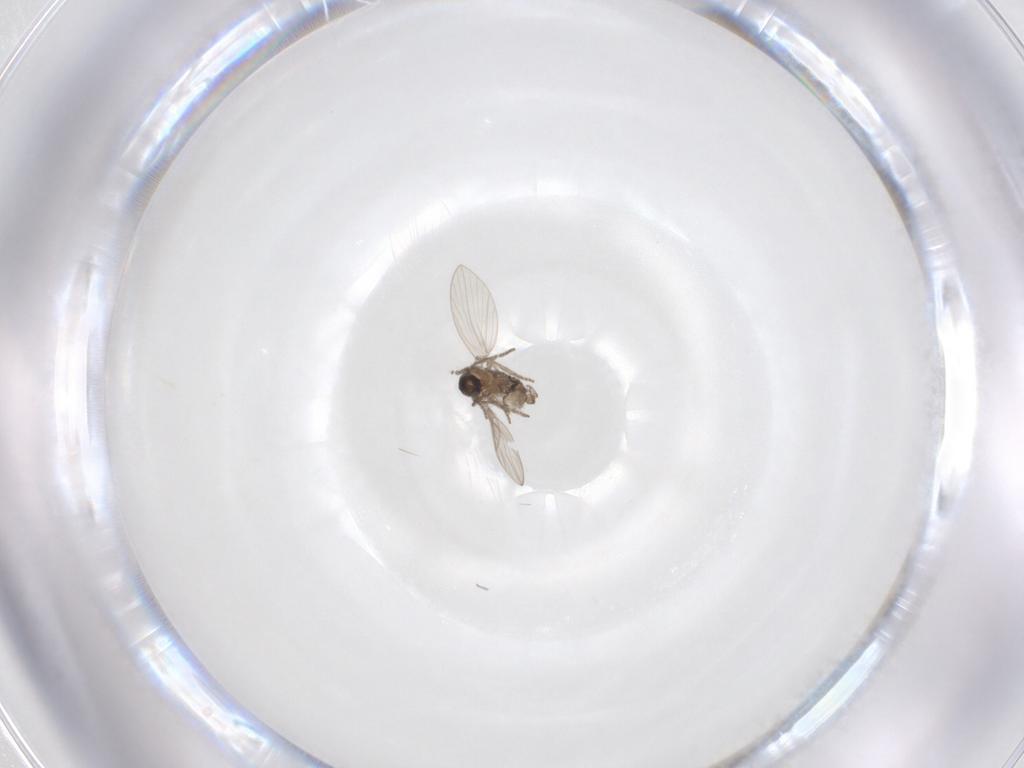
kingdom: Animalia
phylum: Arthropoda
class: Insecta
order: Diptera
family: Psychodidae
